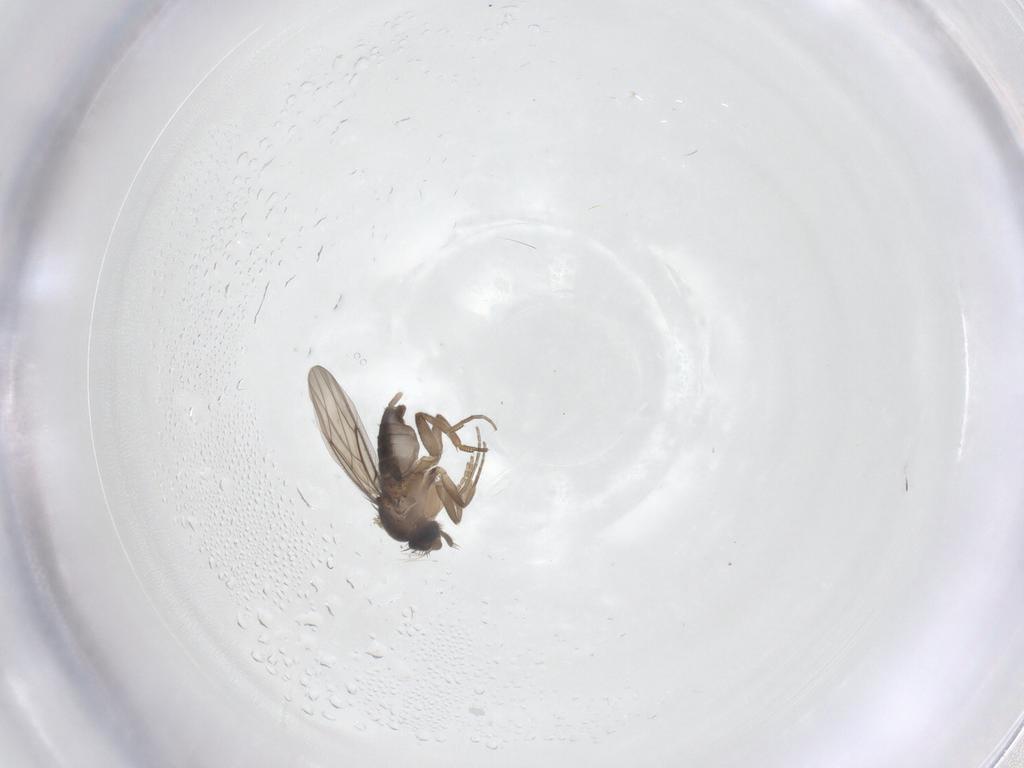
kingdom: Animalia
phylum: Arthropoda
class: Insecta
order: Diptera
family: Phoridae
